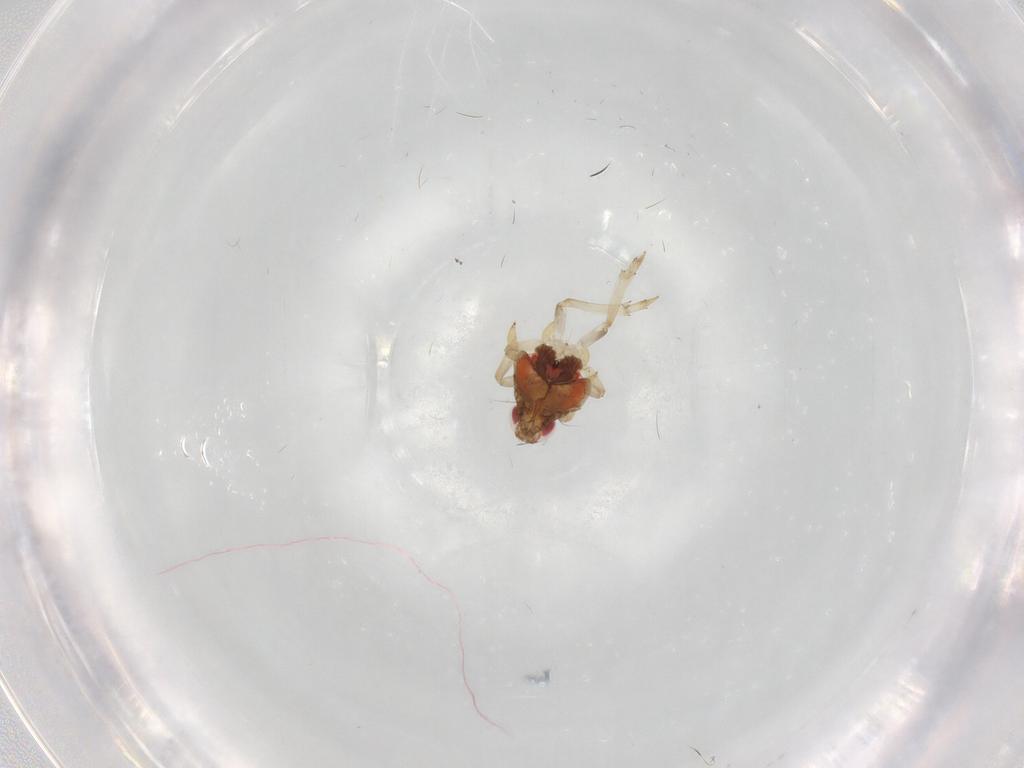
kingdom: Animalia
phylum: Arthropoda
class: Insecta
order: Hemiptera
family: Issidae
